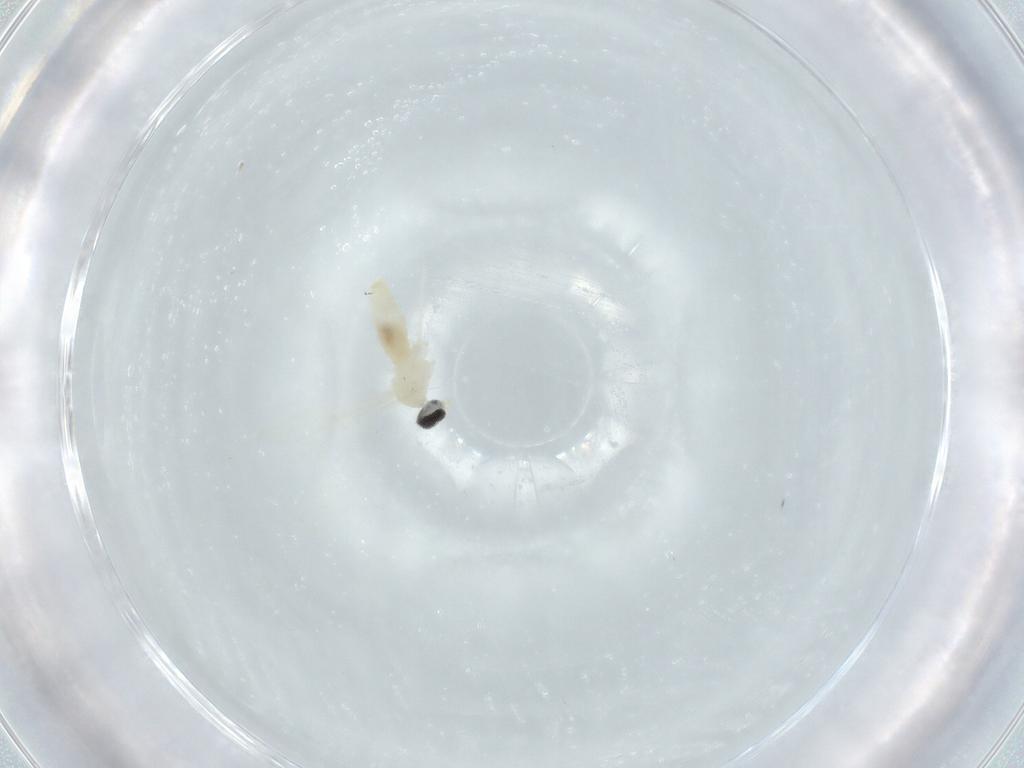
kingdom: Animalia
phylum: Arthropoda
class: Insecta
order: Diptera
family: Cecidomyiidae
